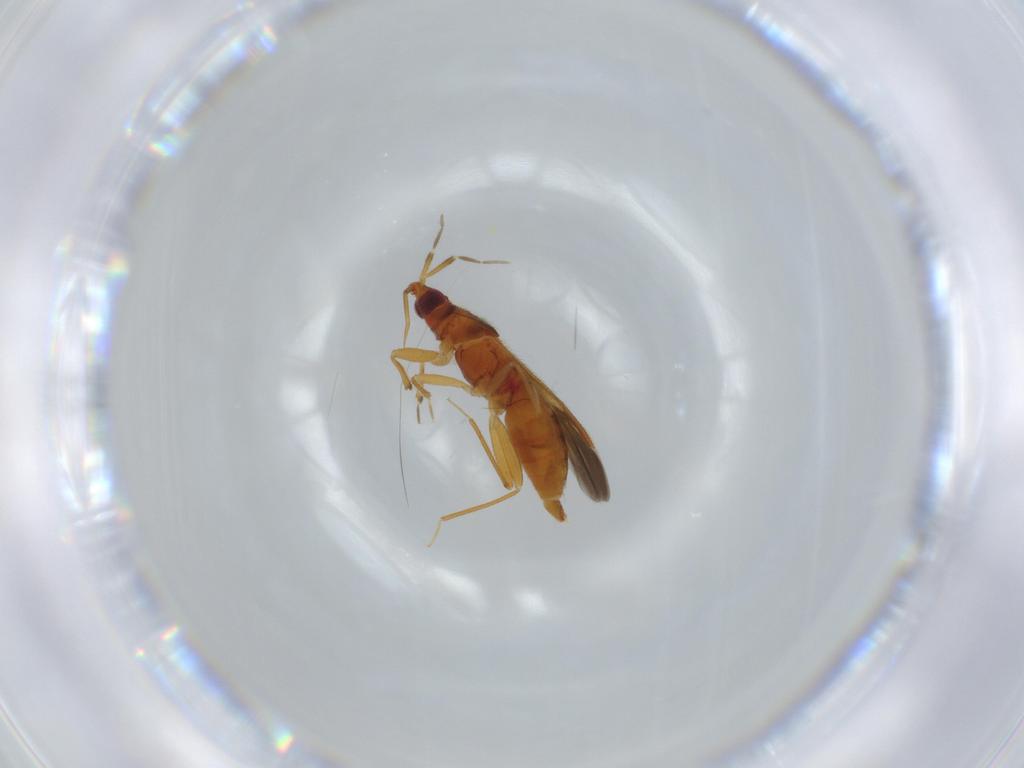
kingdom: Animalia
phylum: Arthropoda
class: Insecta
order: Hemiptera
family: Anthocoridae
